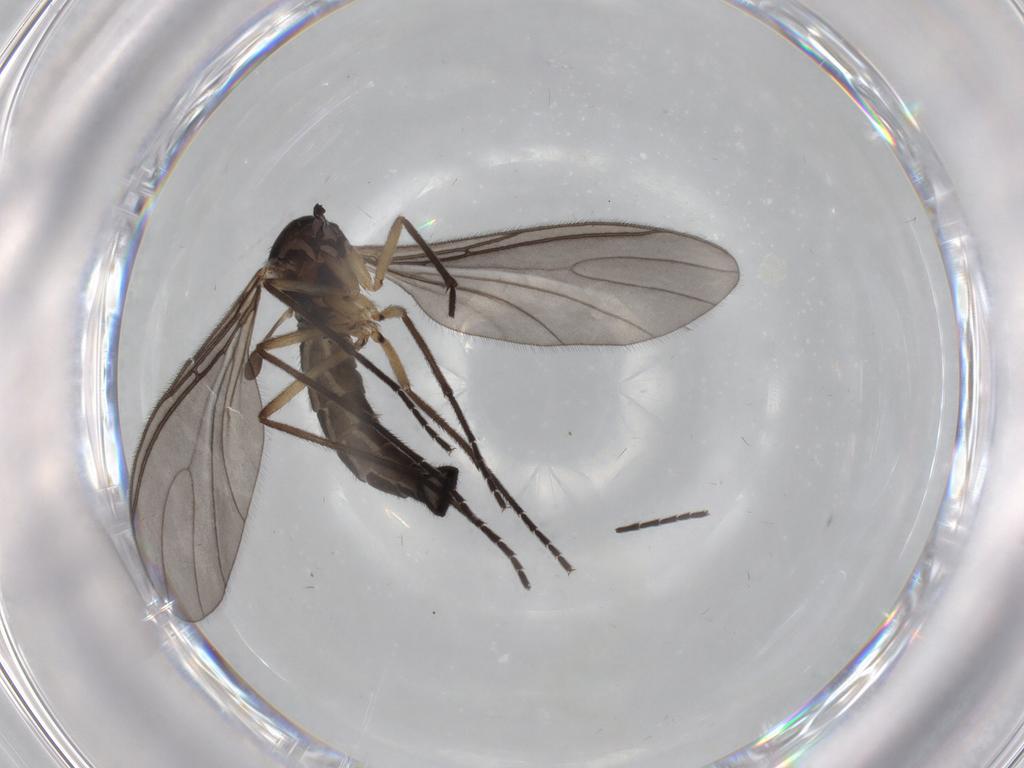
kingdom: Animalia
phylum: Arthropoda
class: Insecta
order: Diptera
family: Sciaridae
